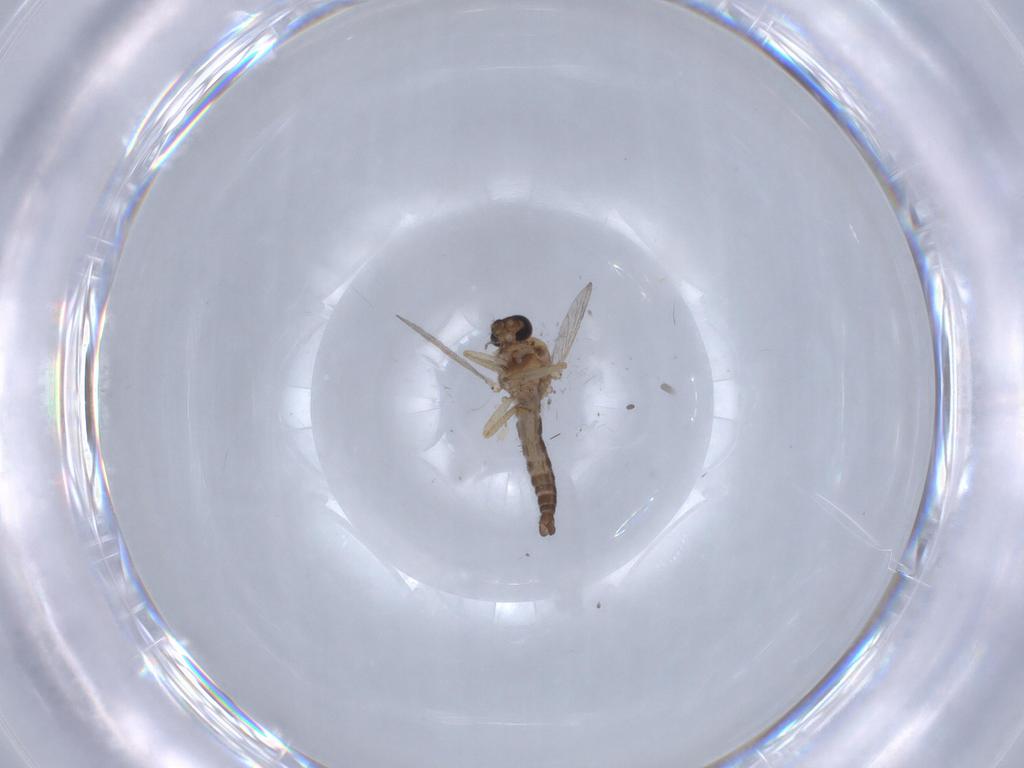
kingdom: Animalia
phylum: Arthropoda
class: Insecta
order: Diptera
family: Ceratopogonidae
